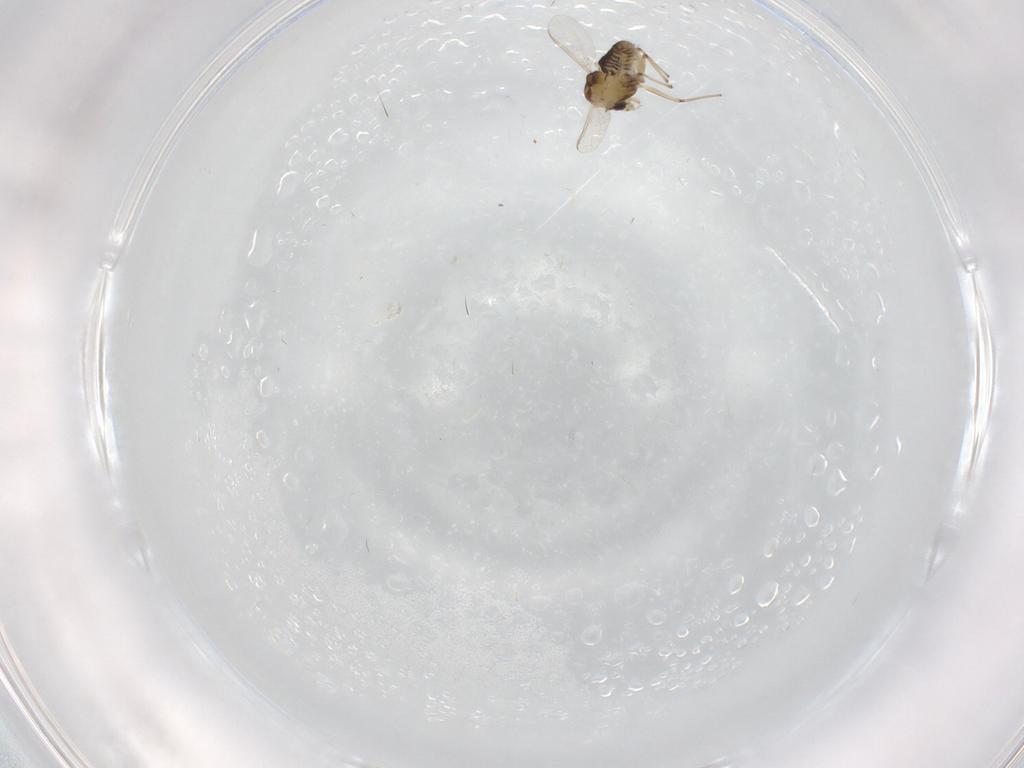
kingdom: Animalia
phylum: Arthropoda
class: Insecta
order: Diptera
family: Chironomidae
